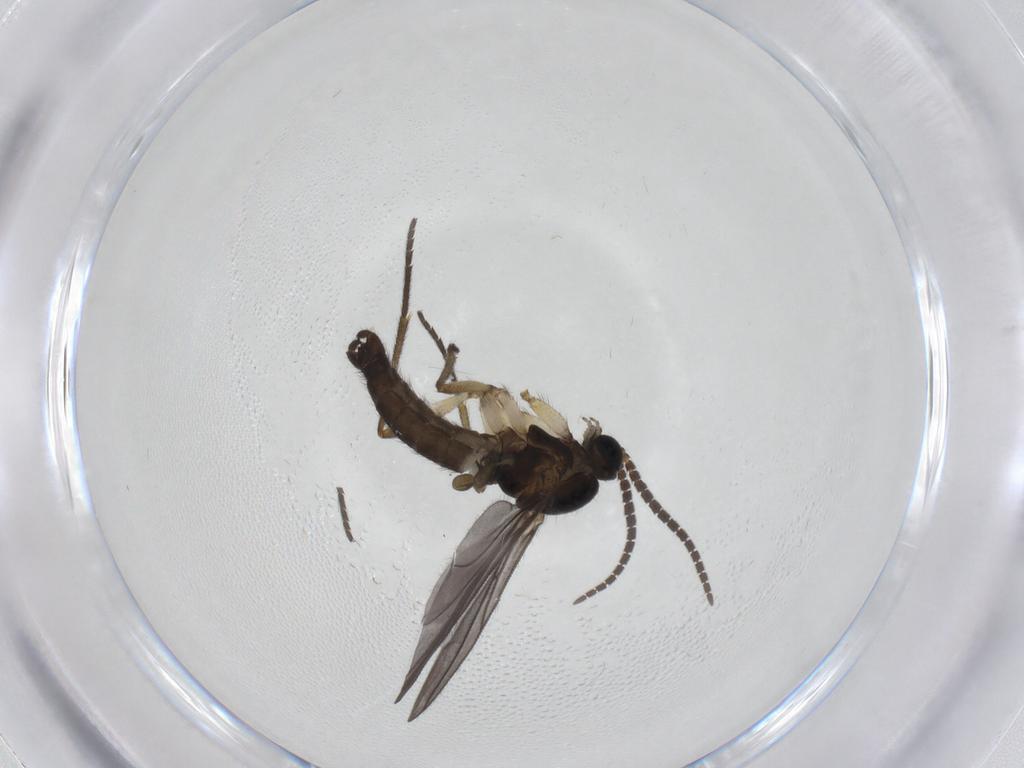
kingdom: Animalia
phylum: Arthropoda
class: Insecta
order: Diptera
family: Sciaridae
